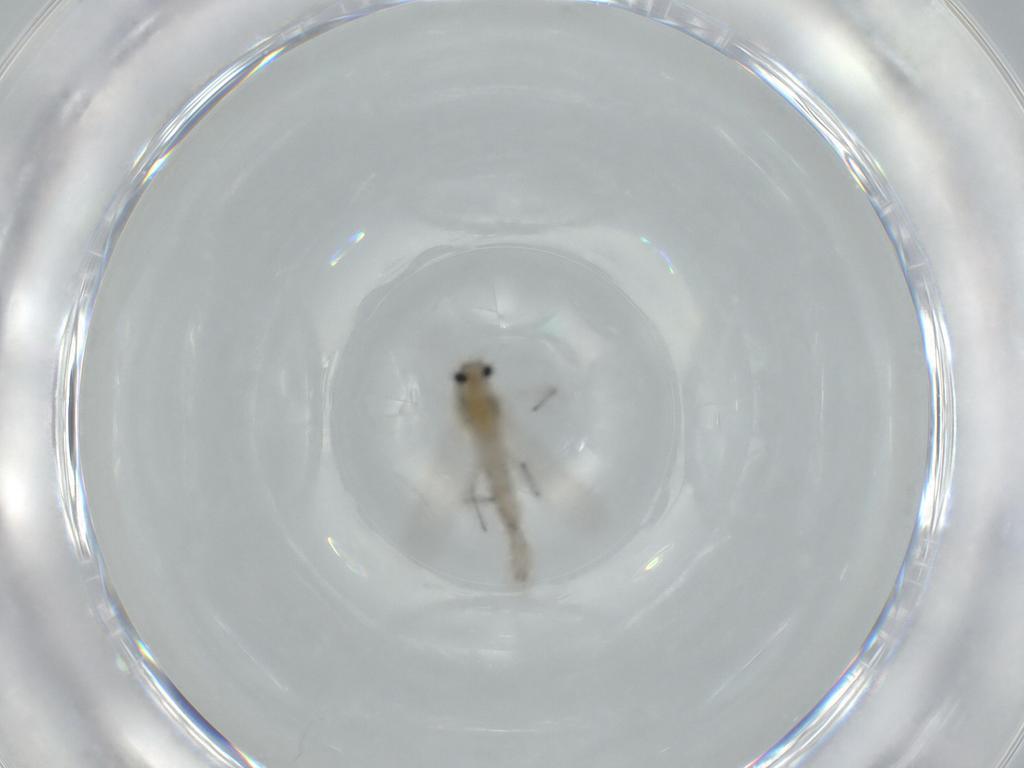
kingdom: Animalia
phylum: Arthropoda
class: Insecta
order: Diptera
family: Chironomidae
